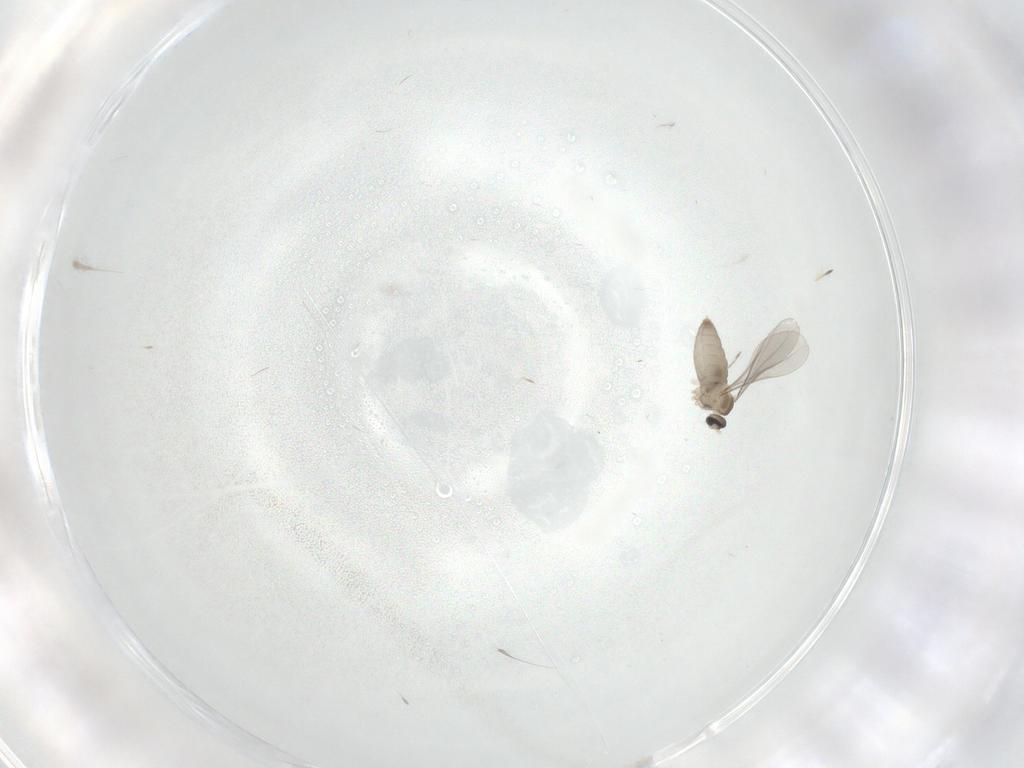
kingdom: Animalia
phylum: Arthropoda
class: Insecta
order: Diptera
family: Chironomidae
